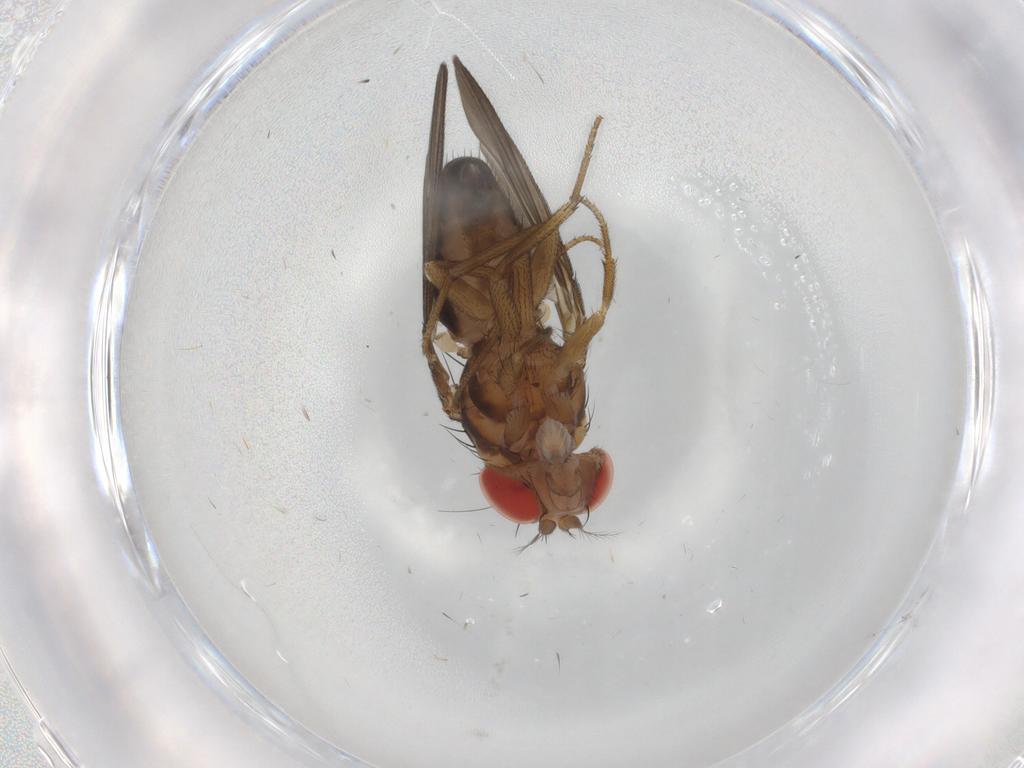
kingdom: Animalia
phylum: Arthropoda
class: Insecta
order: Diptera
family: Drosophilidae
